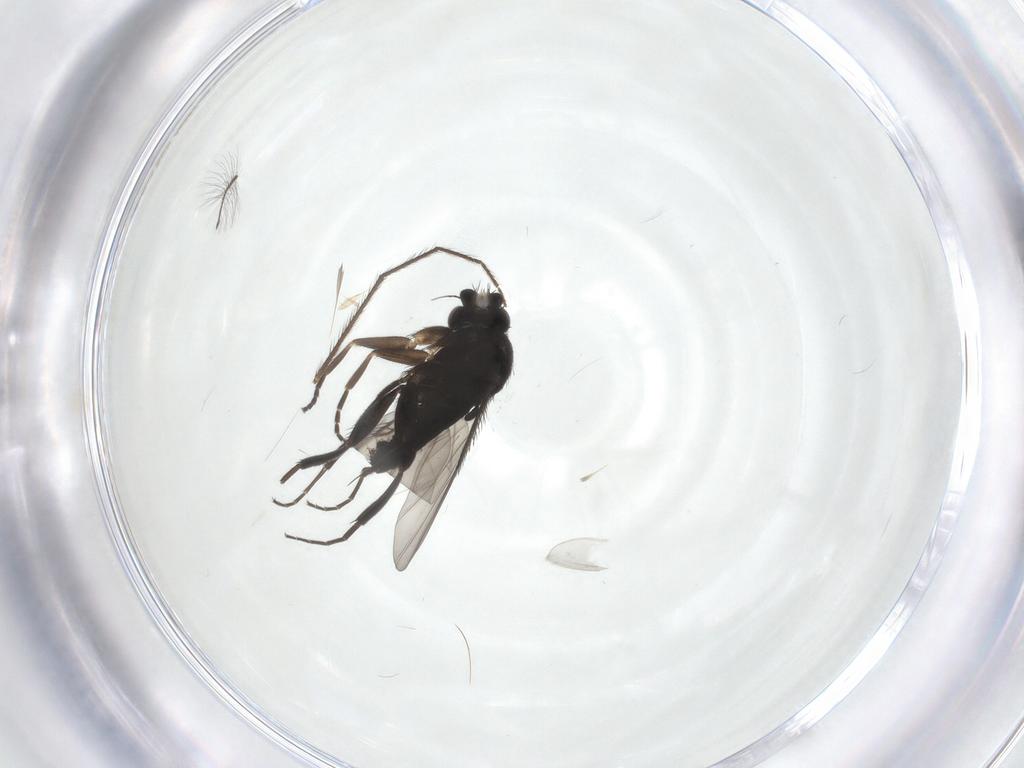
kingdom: Animalia
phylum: Arthropoda
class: Insecta
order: Diptera
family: Phoridae
